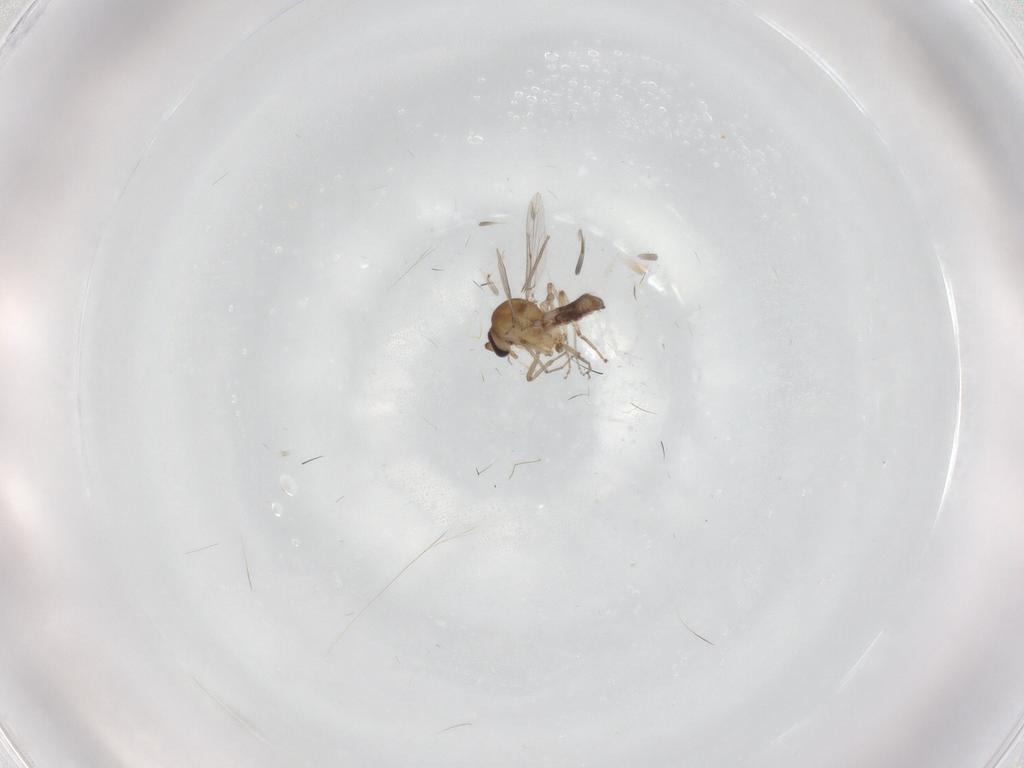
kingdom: Animalia
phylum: Arthropoda
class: Insecta
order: Diptera
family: Ceratopogonidae
